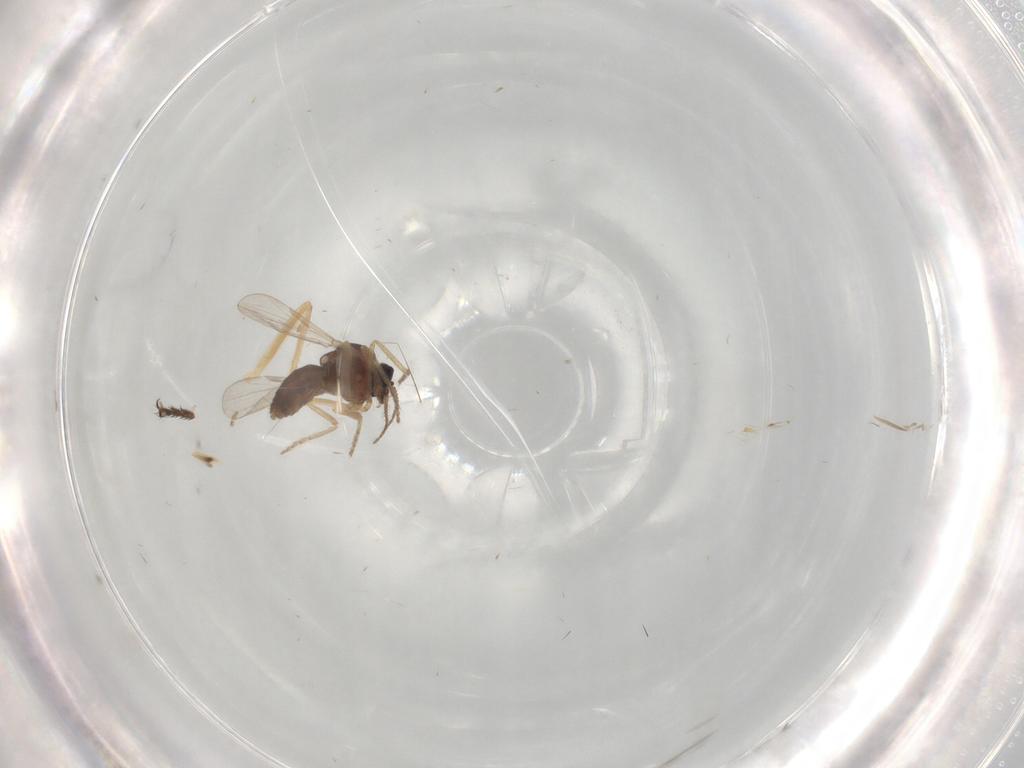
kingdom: Animalia
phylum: Arthropoda
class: Insecta
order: Diptera
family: Ceratopogonidae
